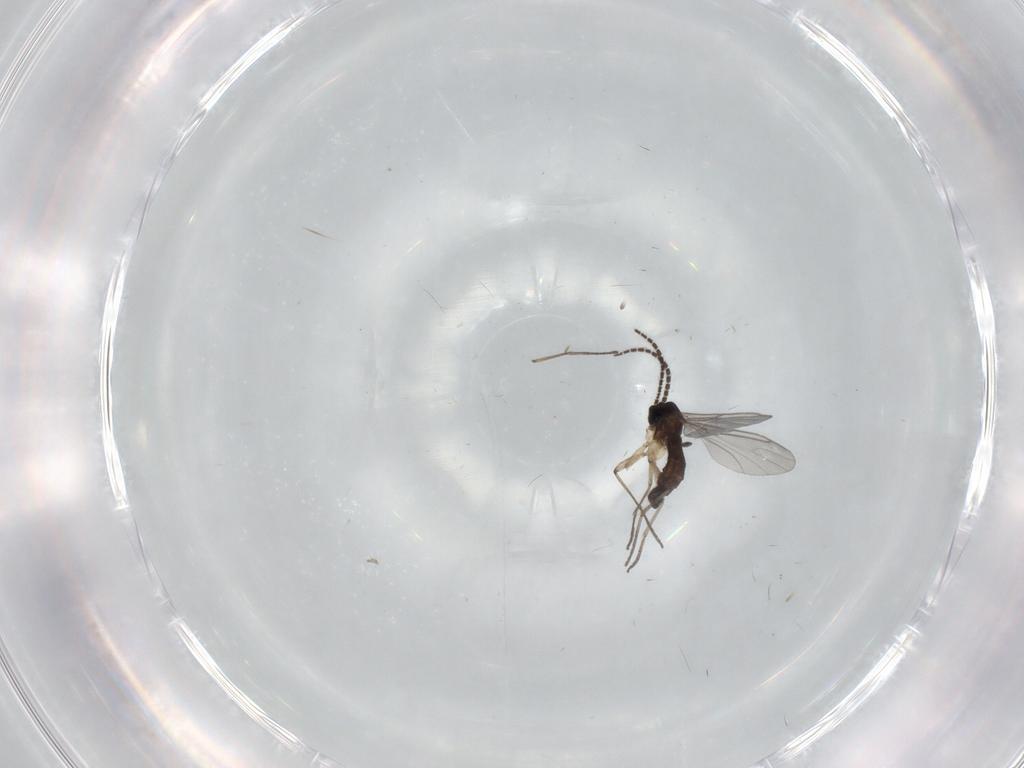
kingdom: Animalia
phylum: Arthropoda
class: Insecta
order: Diptera
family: Sciaridae
